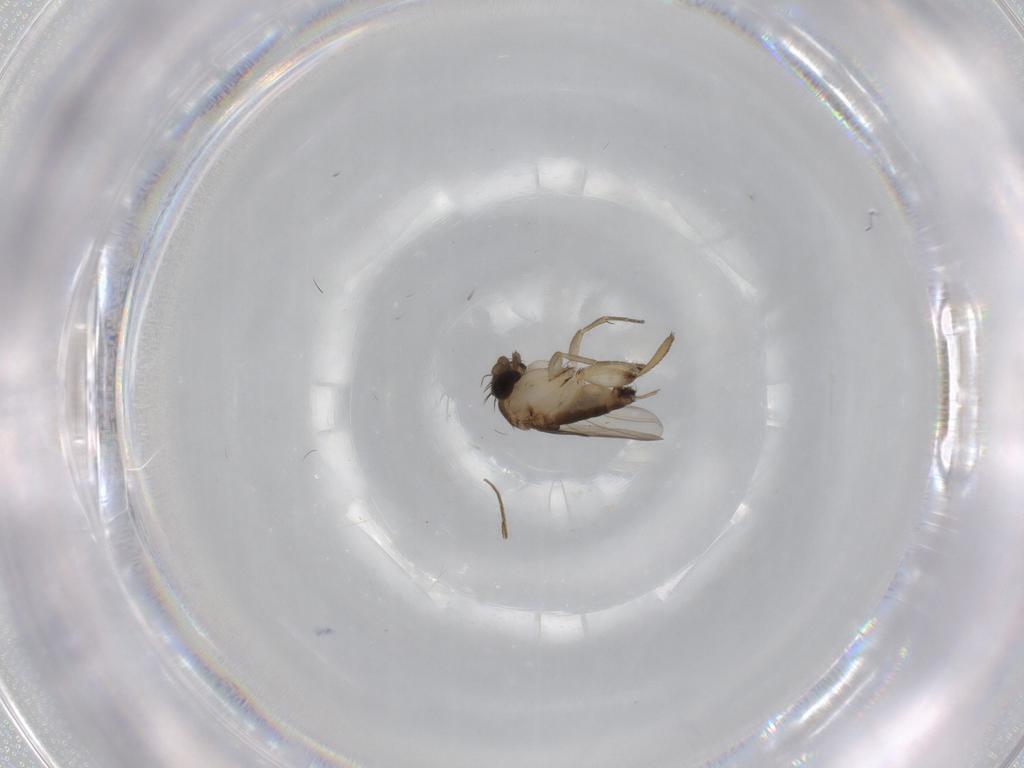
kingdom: Animalia
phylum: Arthropoda
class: Insecta
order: Diptera
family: Phoridae
